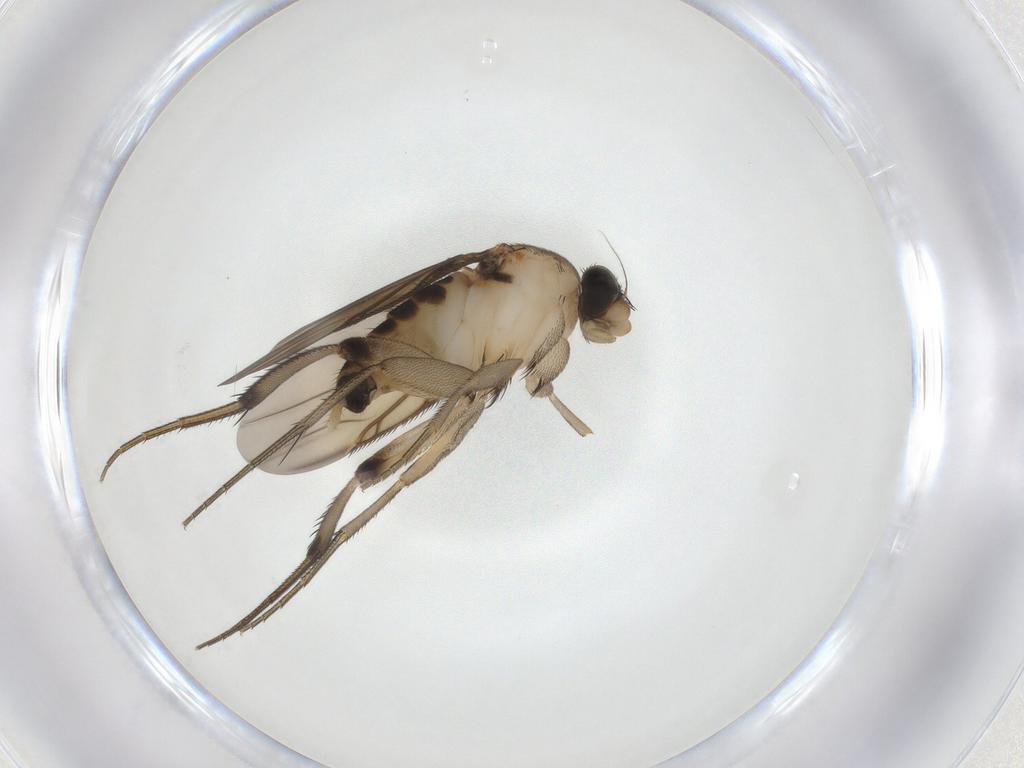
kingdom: Animalia
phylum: Arthropoda
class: Insecta
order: Diptera
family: Phoridae
